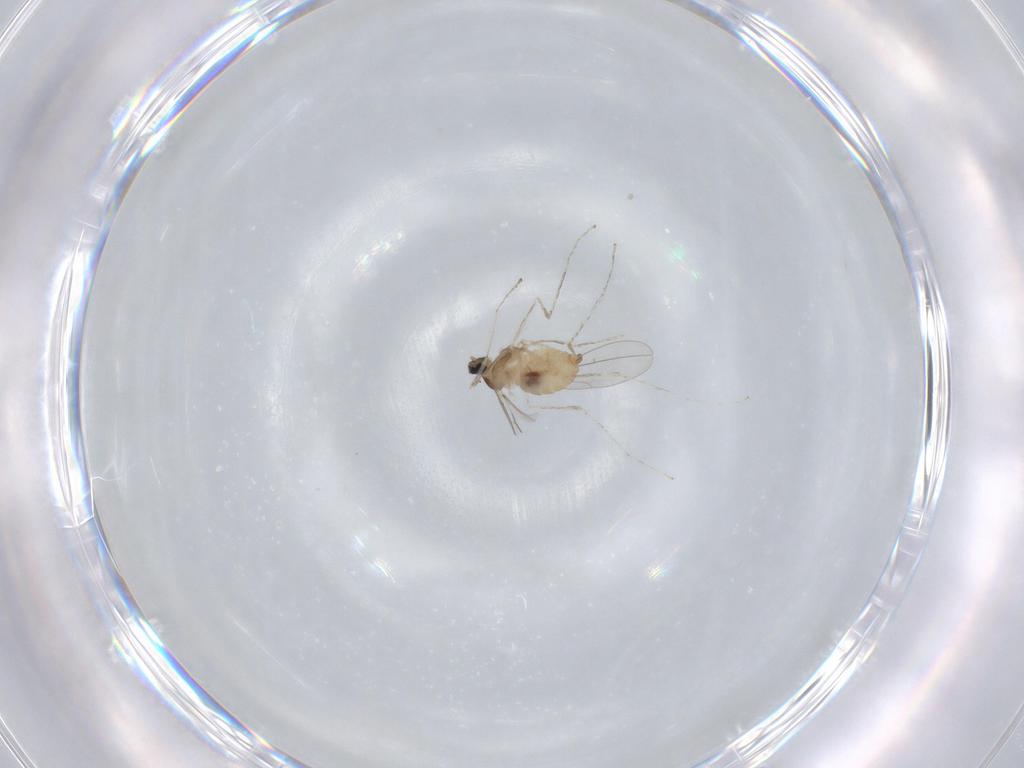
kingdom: Animalia
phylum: Arthropoda
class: Insecta
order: Diptera
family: Cecidomyiidae
